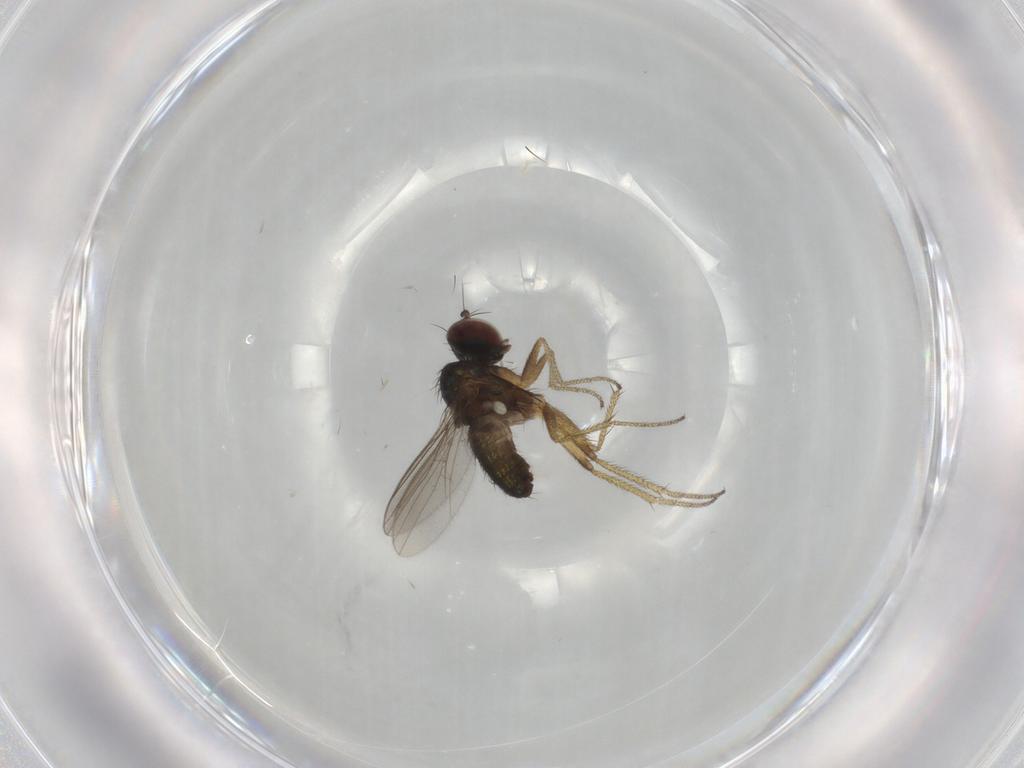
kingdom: Animalia
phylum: Arthropoda
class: Insecta
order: Diptera
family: Dolichopodidae
